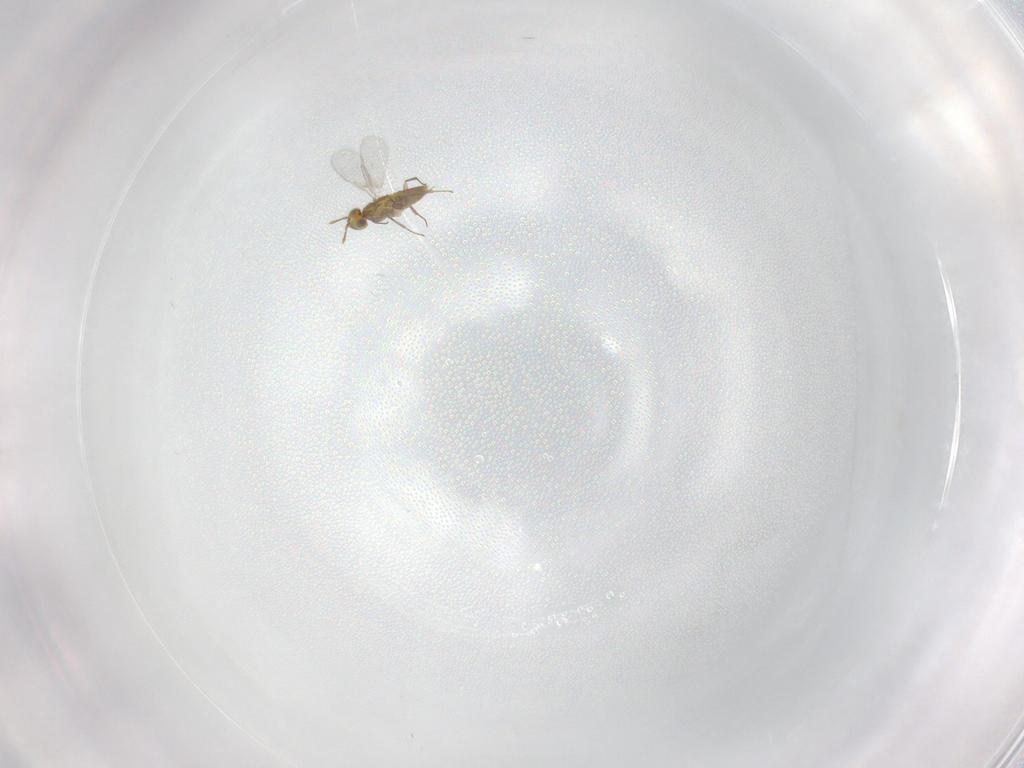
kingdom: Animalia
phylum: Arthropoda
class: Insecta
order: Hymenoptera
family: Aphelinidae
